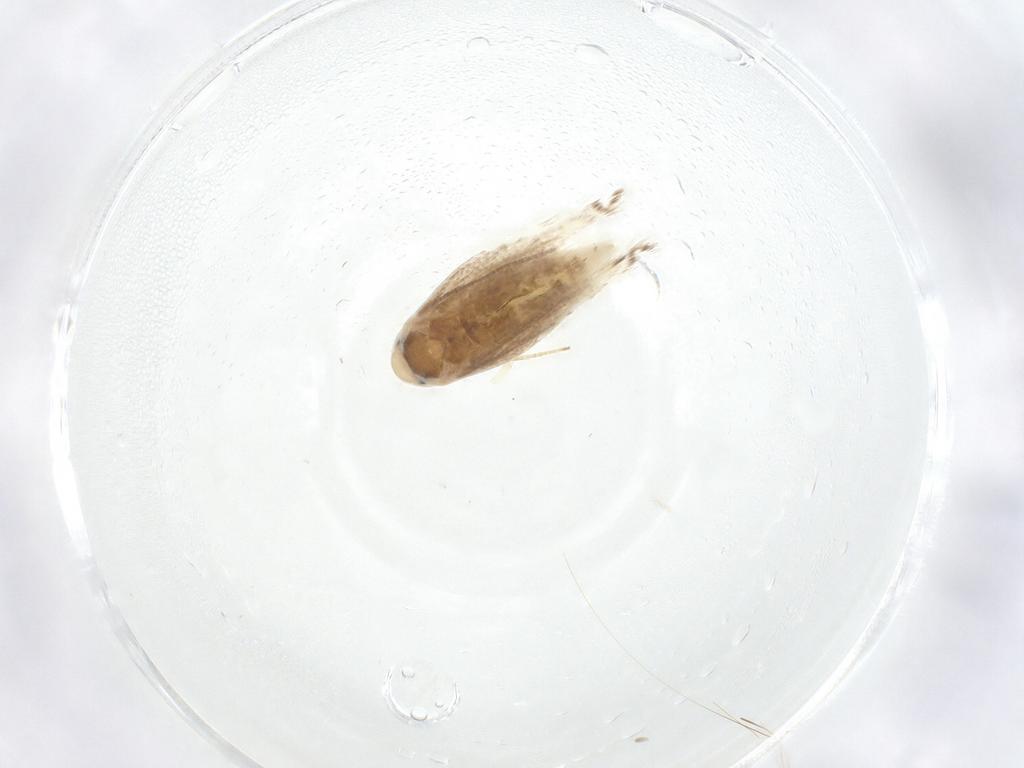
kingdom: Animalia
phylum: Arthropoda
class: Insecta
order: Lepidoptera
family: Lyonetiidae
